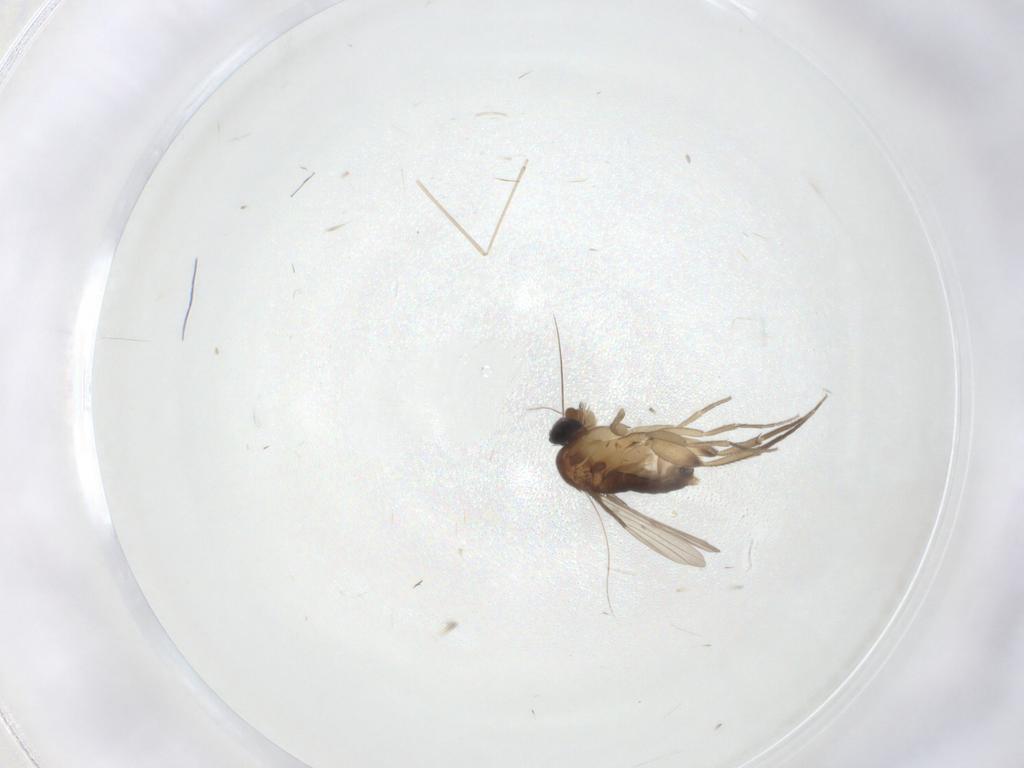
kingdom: Animalia
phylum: Arthropoda
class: Insecta
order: Diptera
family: Phoridae
